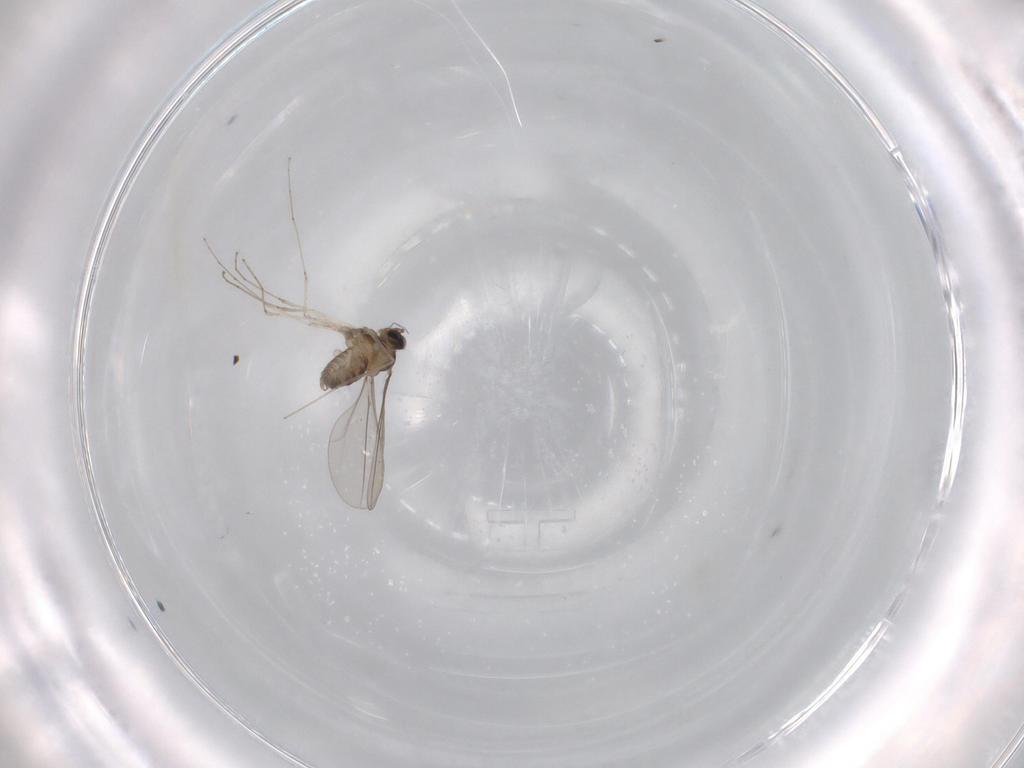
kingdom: Animalia
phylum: Arthropoda
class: Insecta
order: Diptera
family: Cecidomyiidae
